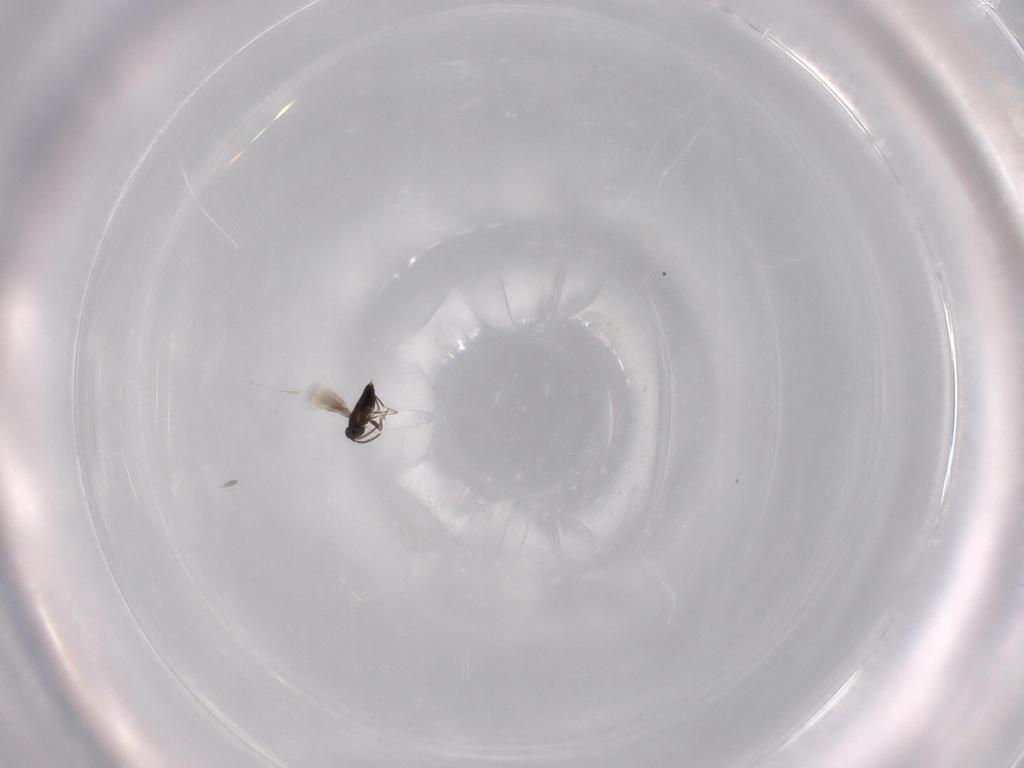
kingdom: Animalia
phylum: Arthropoda
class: Insecta
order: Hymenoptera
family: Signiphoridae
